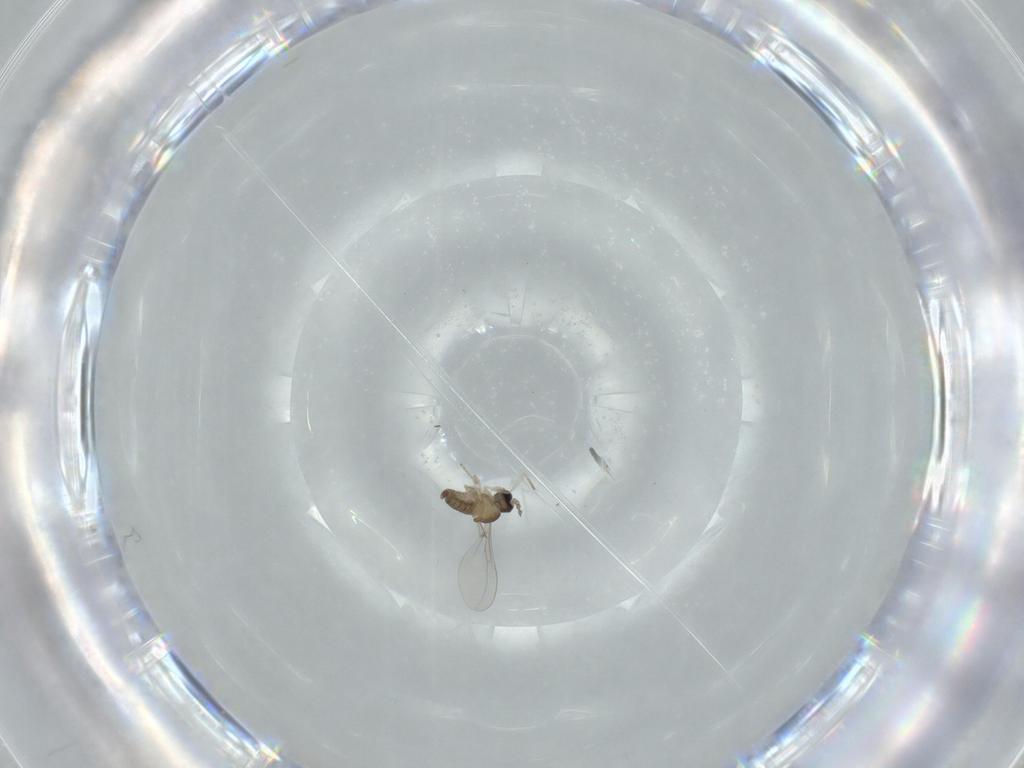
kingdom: Animalia
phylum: Arthropoda
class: Insecta
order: Diptera
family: Cecidomyiidae
